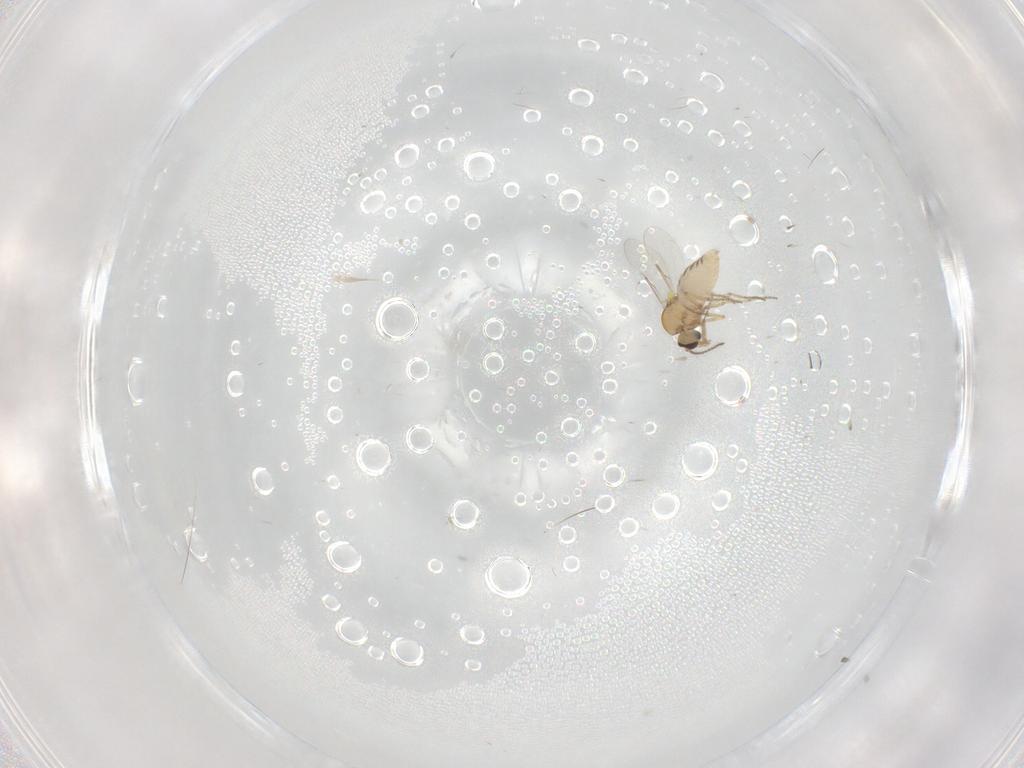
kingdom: Animalia
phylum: Arthropoda
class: Insecta
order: Diptera
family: Ceratopogonidae
